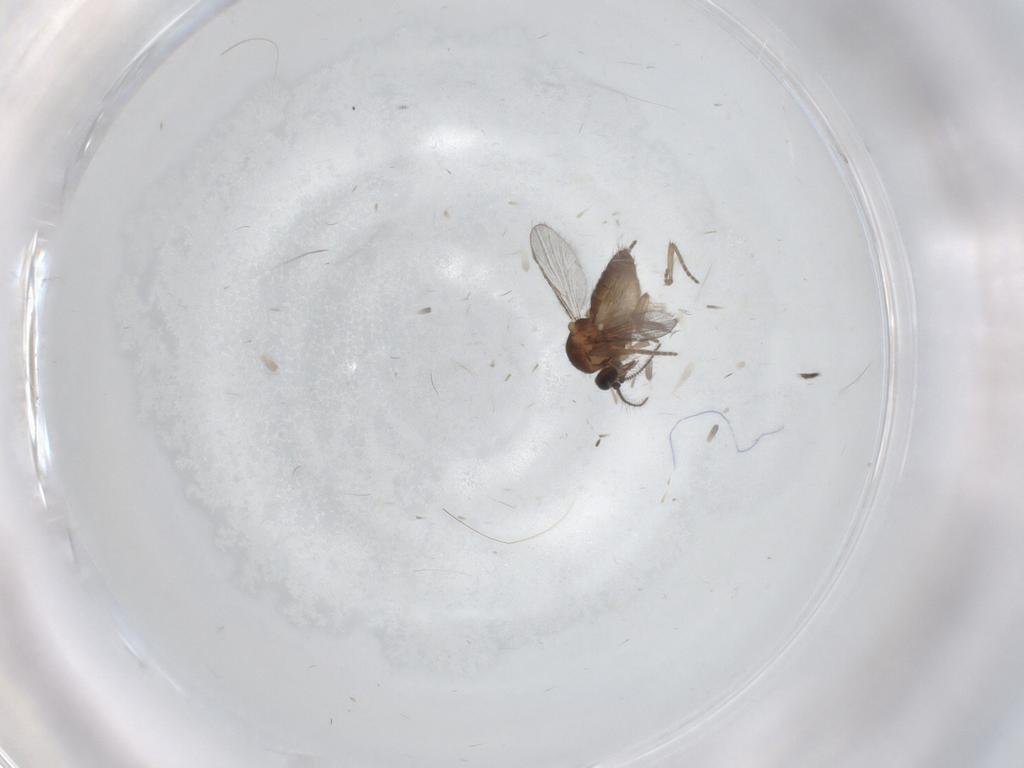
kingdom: Animalia
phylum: Arthropoda
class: Insecta
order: Diptera
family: Ceratopogonidae
